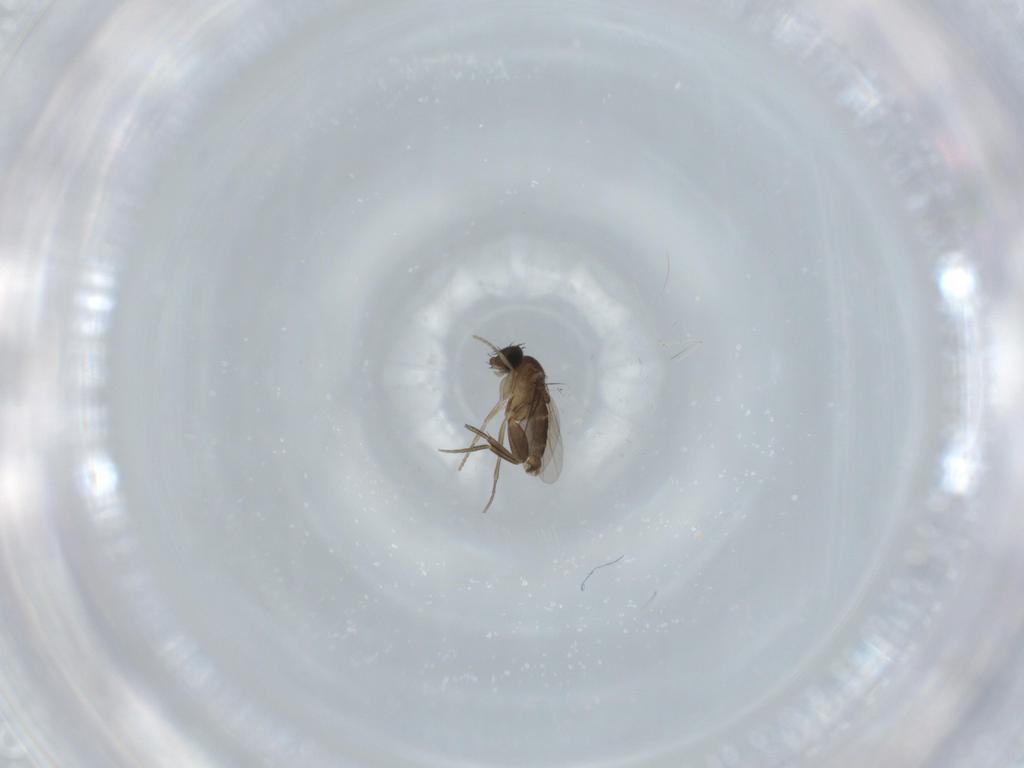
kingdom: Animalia
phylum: Arthropoda
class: Insecta
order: Diptera
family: Phoridae
